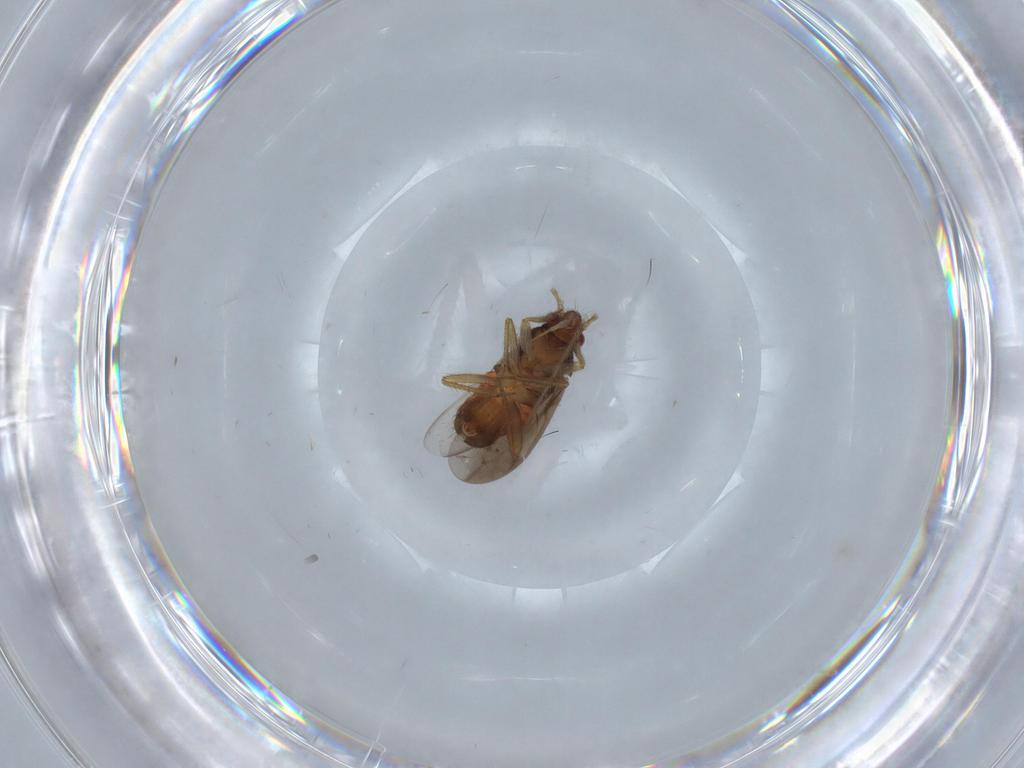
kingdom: Animalia
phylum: Arthropoda
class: Insecta
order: Hemiptera
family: Ceratocombidae
